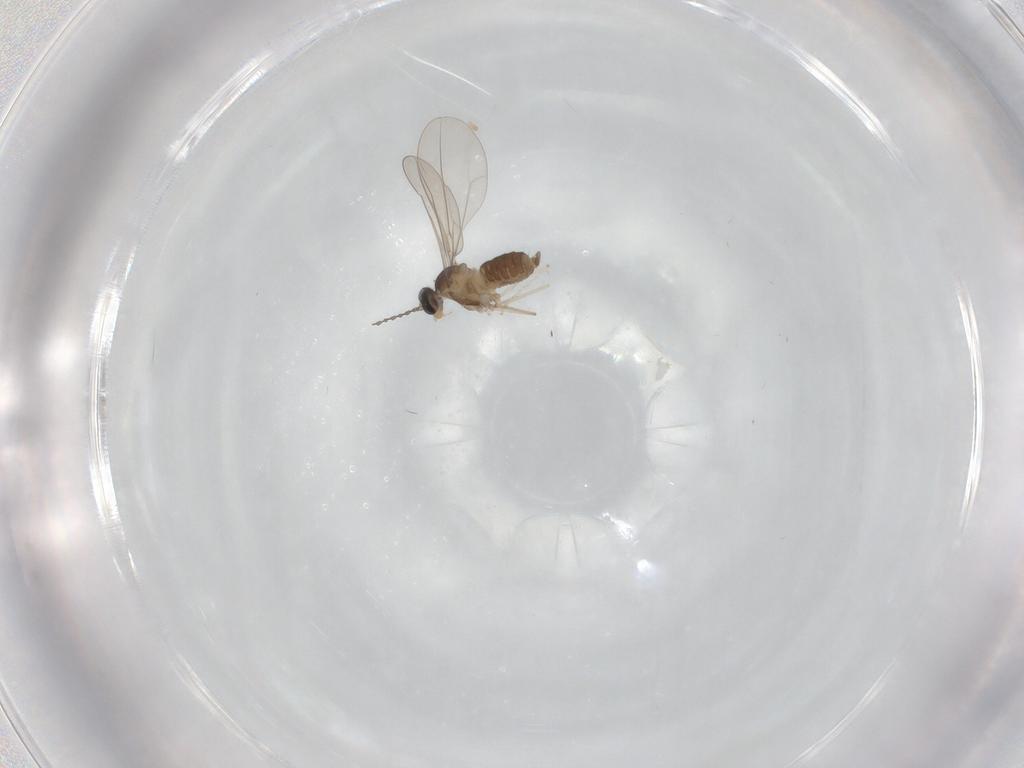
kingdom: Animalia
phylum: Arthropoda
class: Insecta
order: Diptera
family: Cecidomyiidae
